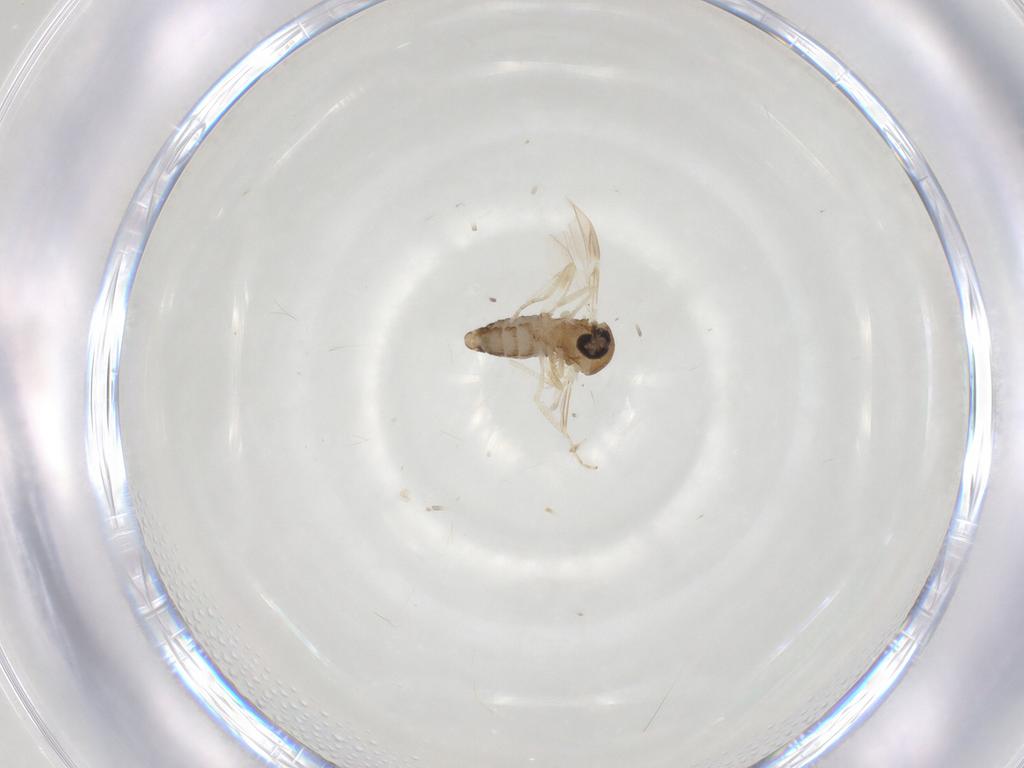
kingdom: Animalia
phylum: Arthropoda
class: Insecta
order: Diptera
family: Ceratopogonidae
